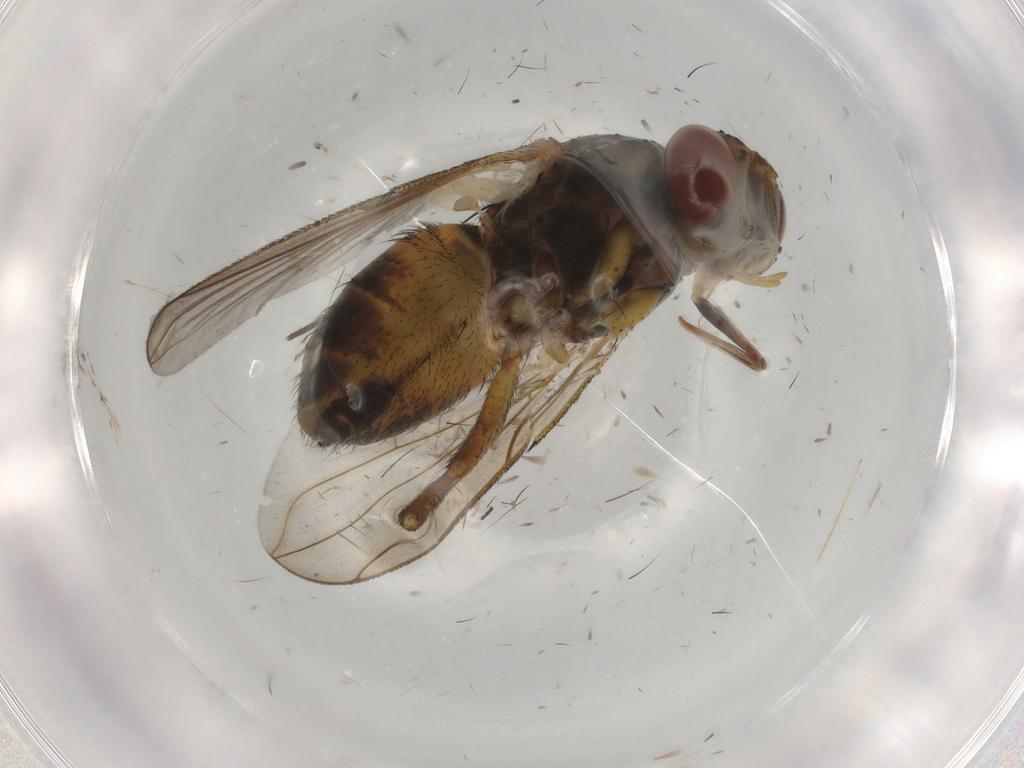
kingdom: Animalia
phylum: Arthropoda
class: Insecta
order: Diptera
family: Tachinidae
